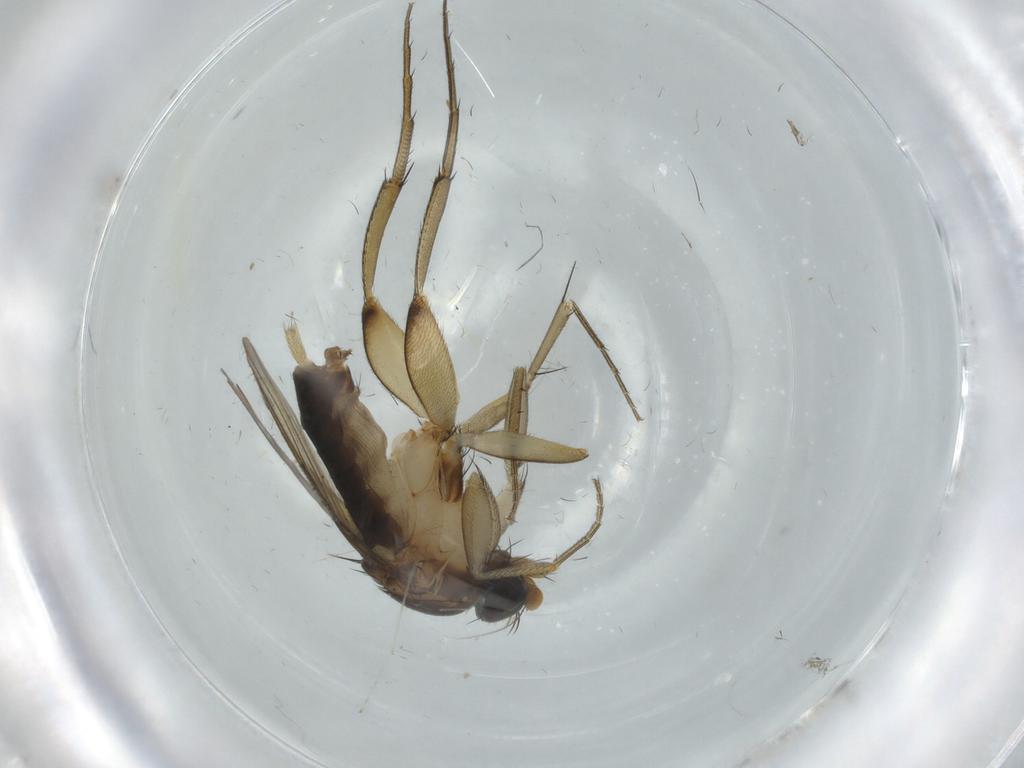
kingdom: Animalia
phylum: Arthropoda
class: Insecta
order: Diptera
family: Phoridae
